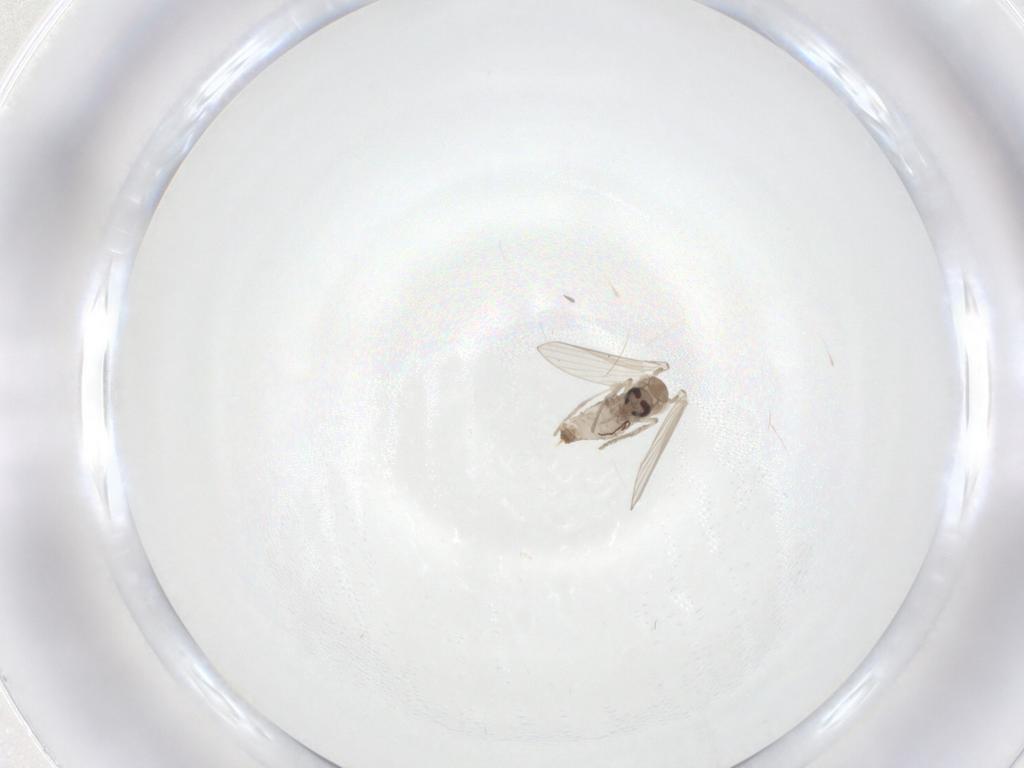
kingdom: Animalia
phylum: Arthropoda
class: Insecta
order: Diptera
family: Psychodidae
